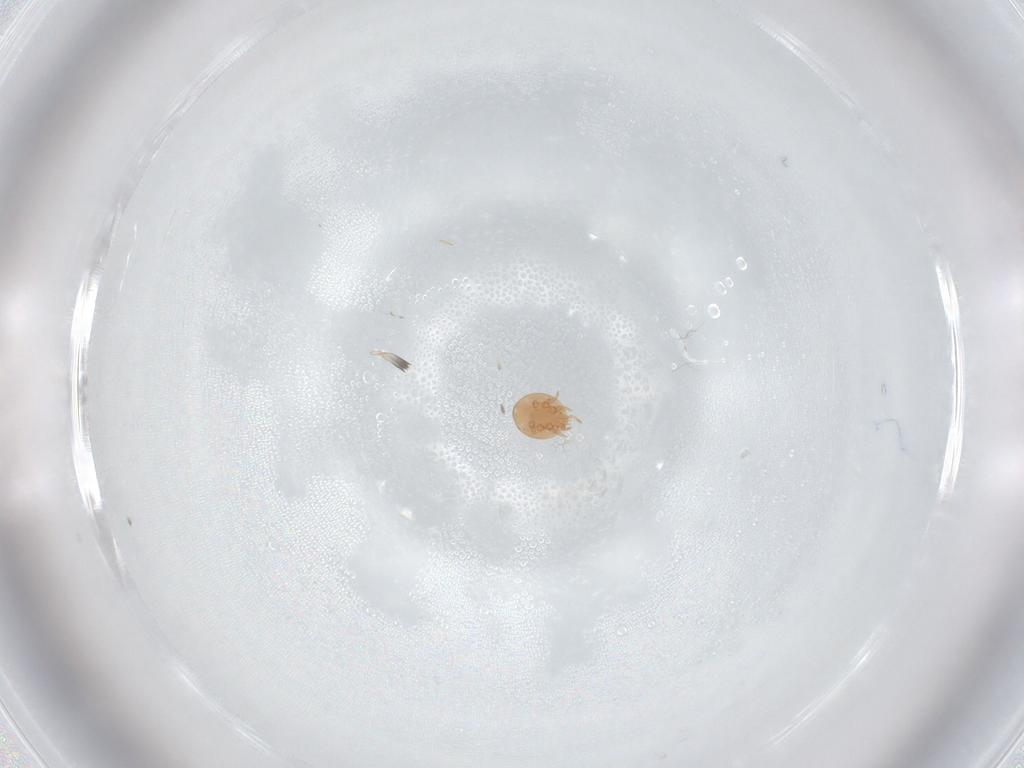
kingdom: Animalia
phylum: Arthropoda
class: Arachnida
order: Mesostigmata
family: Trematuridae
